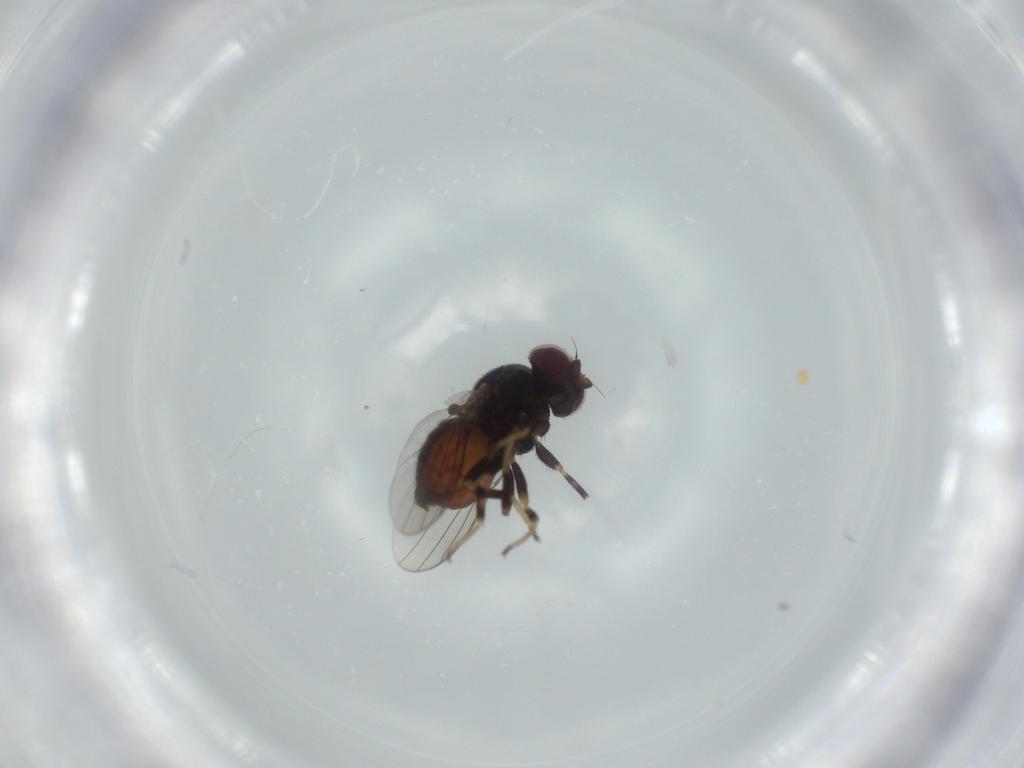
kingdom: Animalia
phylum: Arthropoda
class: Insecta
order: Diptera
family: Chloropidae
